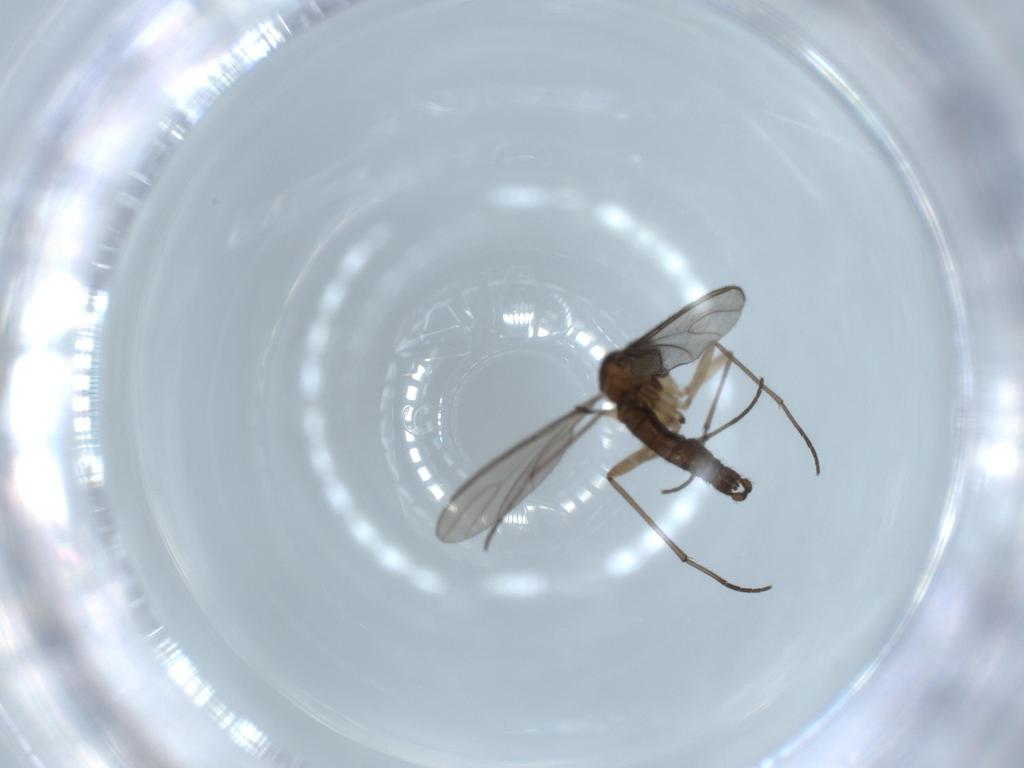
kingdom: Animalia
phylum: Arthropoda
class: Insecta
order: Diptera
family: Sciaridae
